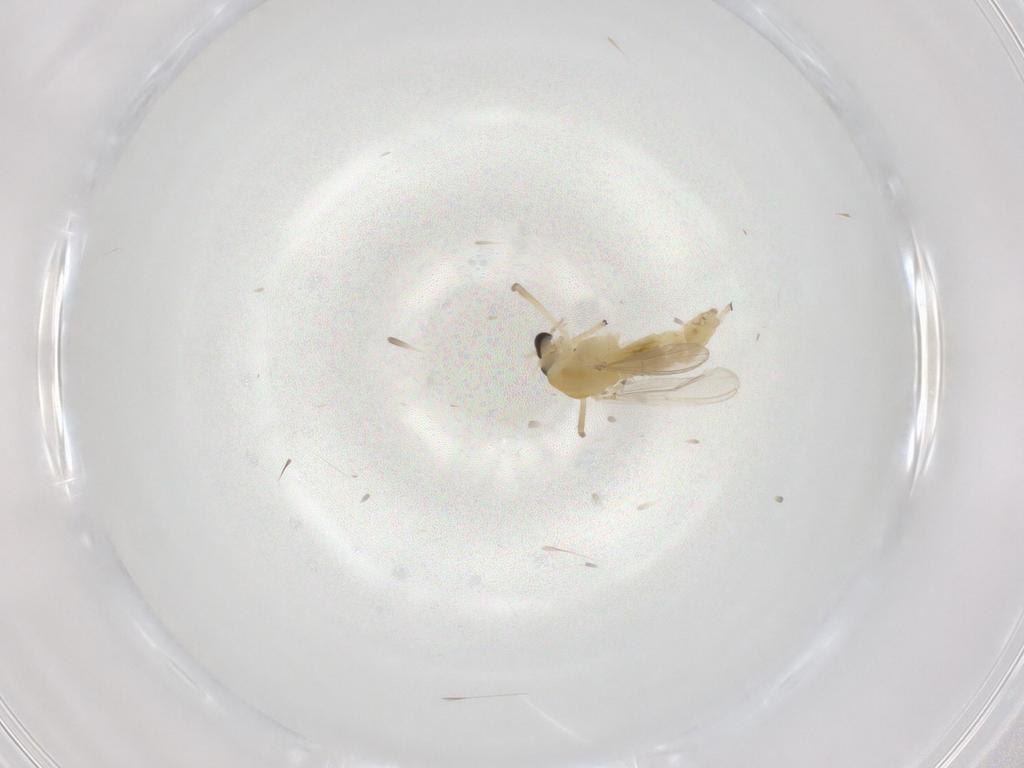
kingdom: Animalia
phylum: Arthropoda
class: Insecta
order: Diptera
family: Chironomidae
